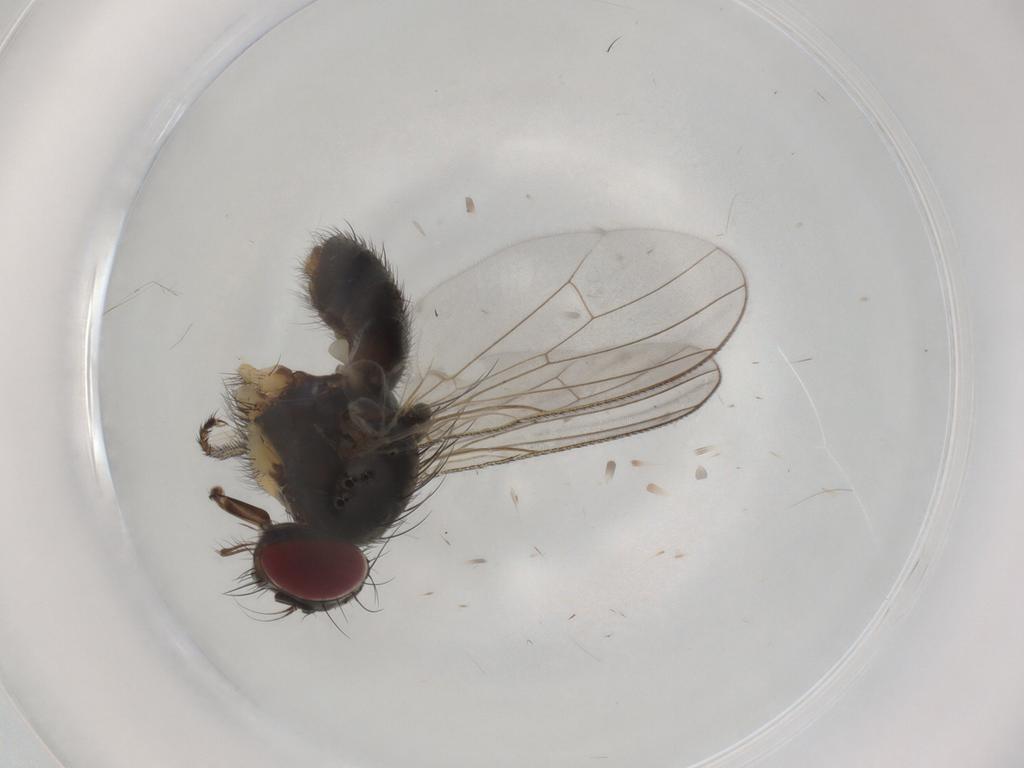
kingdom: Animalia
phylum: Arthropoda
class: Insecta
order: Diptera
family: Muscidae
